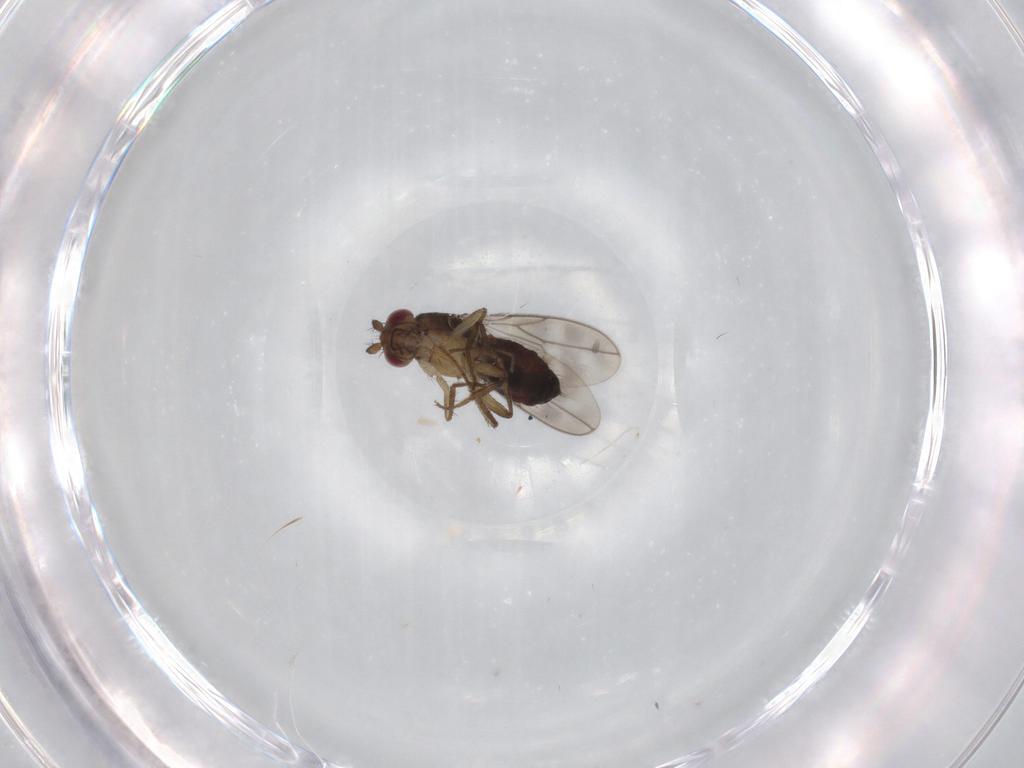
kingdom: Animalia
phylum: Arthropoda
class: Insecta
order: Diptera
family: Sphaeroceridae
